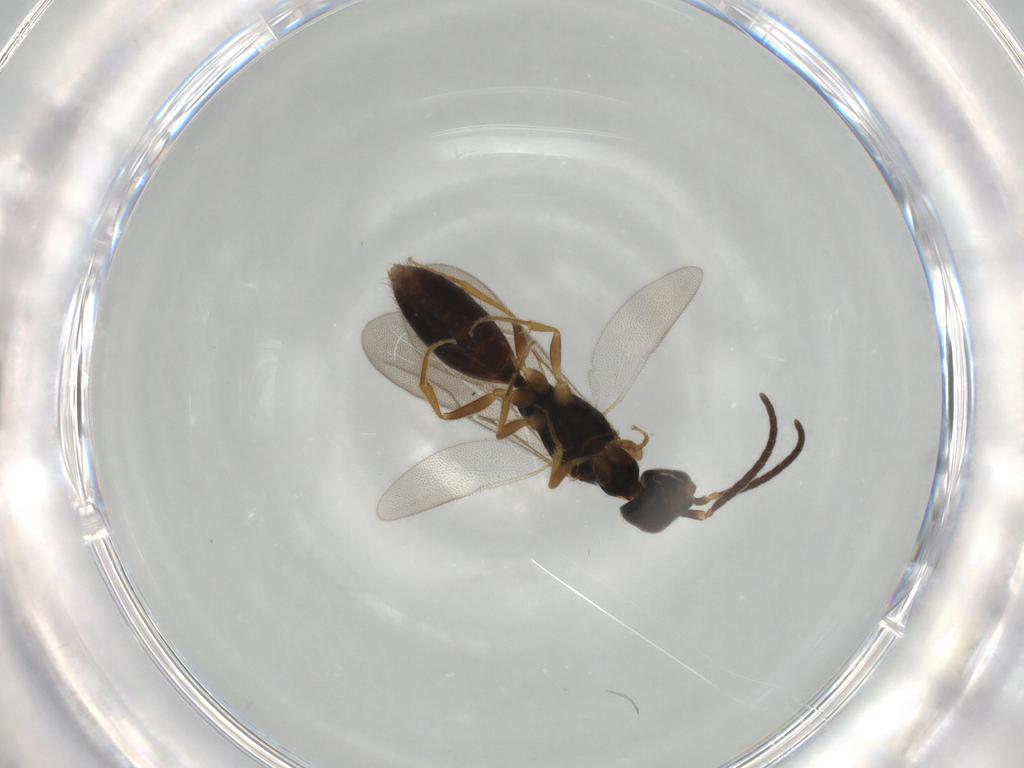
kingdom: Animalia
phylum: Arthropoda
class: Insecta
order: Hymenoptera
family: Bethylidae
